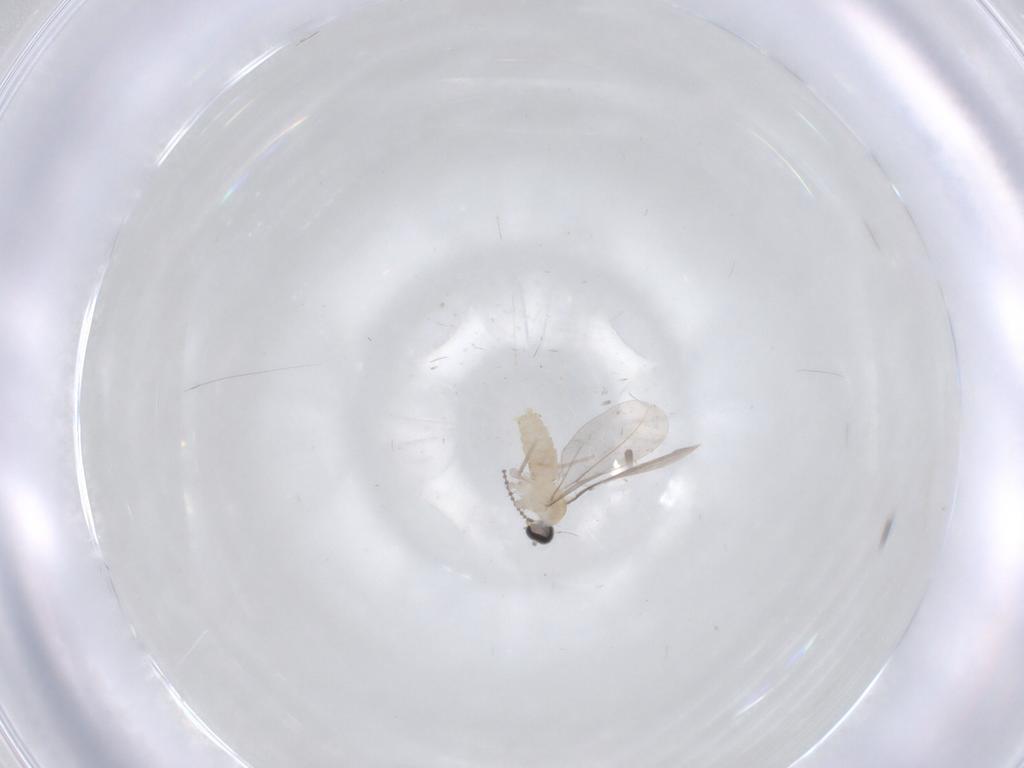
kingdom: Animalia
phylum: Arthropoda
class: Insecta
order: Diptera
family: Cecidomyiidae
